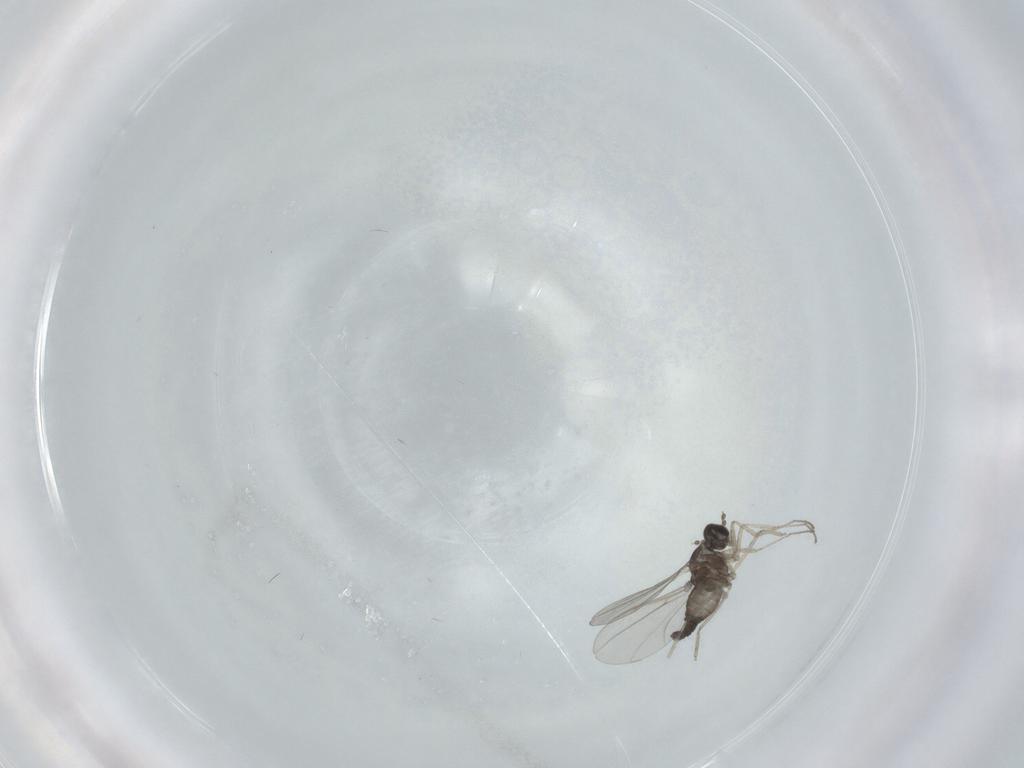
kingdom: Animalia
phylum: Arthropoda
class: Insecta
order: Diptera
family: Cecidomyiidae
